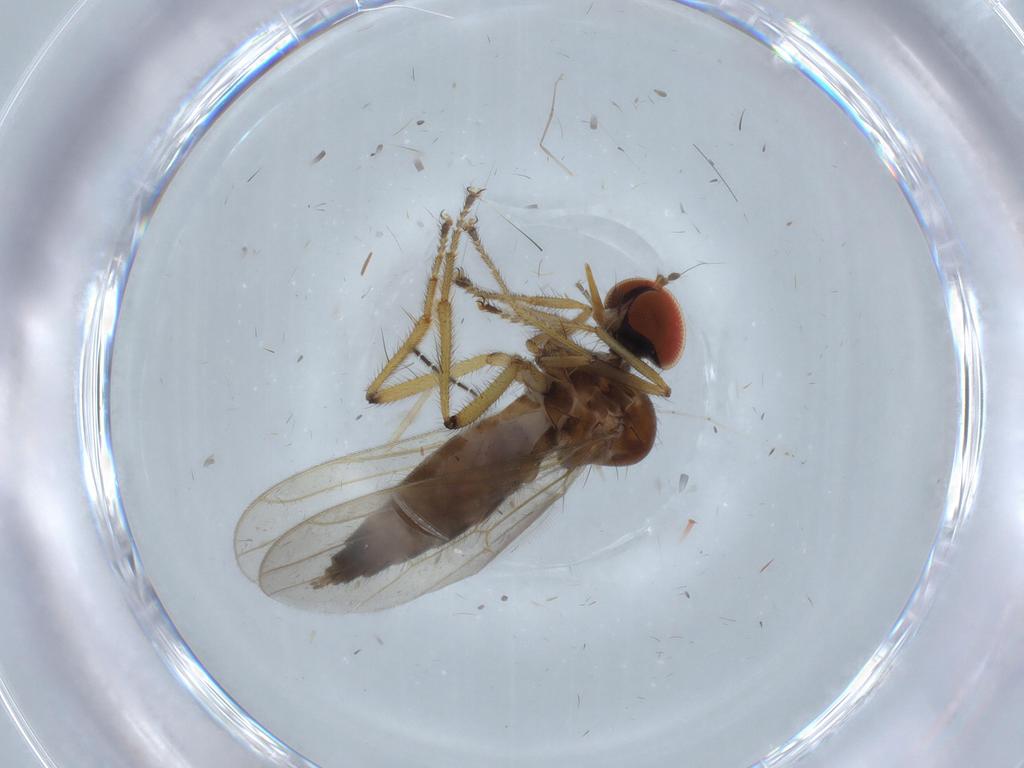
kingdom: Animalia
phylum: Arthropoda
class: Insecta
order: Diptera
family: Hybotidae
